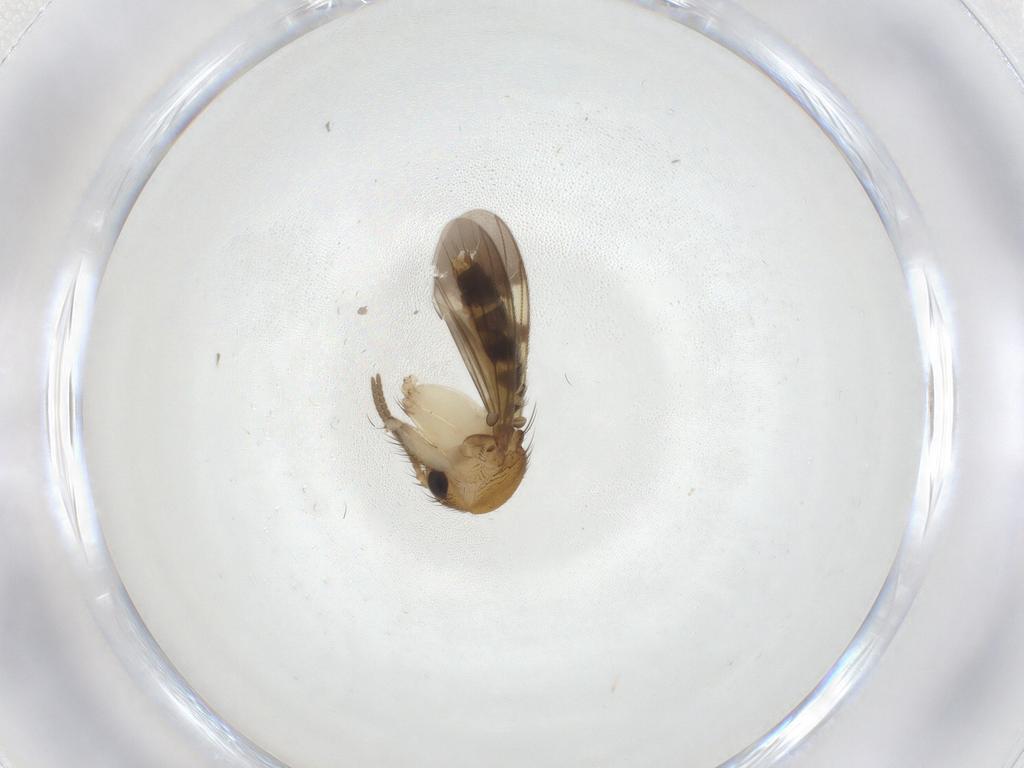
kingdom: Animalia
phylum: Arthropoda
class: Insecta
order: Diptera
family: Mycetophilidae
